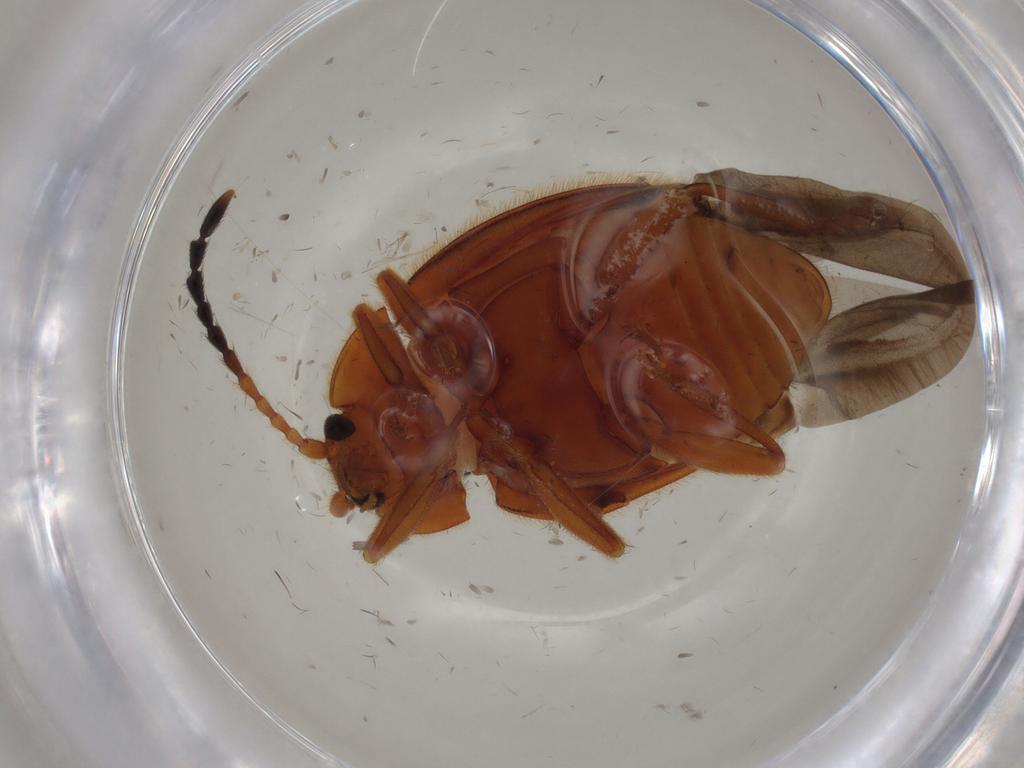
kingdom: Animalia
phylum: Arthropoda
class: Insecta
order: Coleoptera
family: Endomychidae
